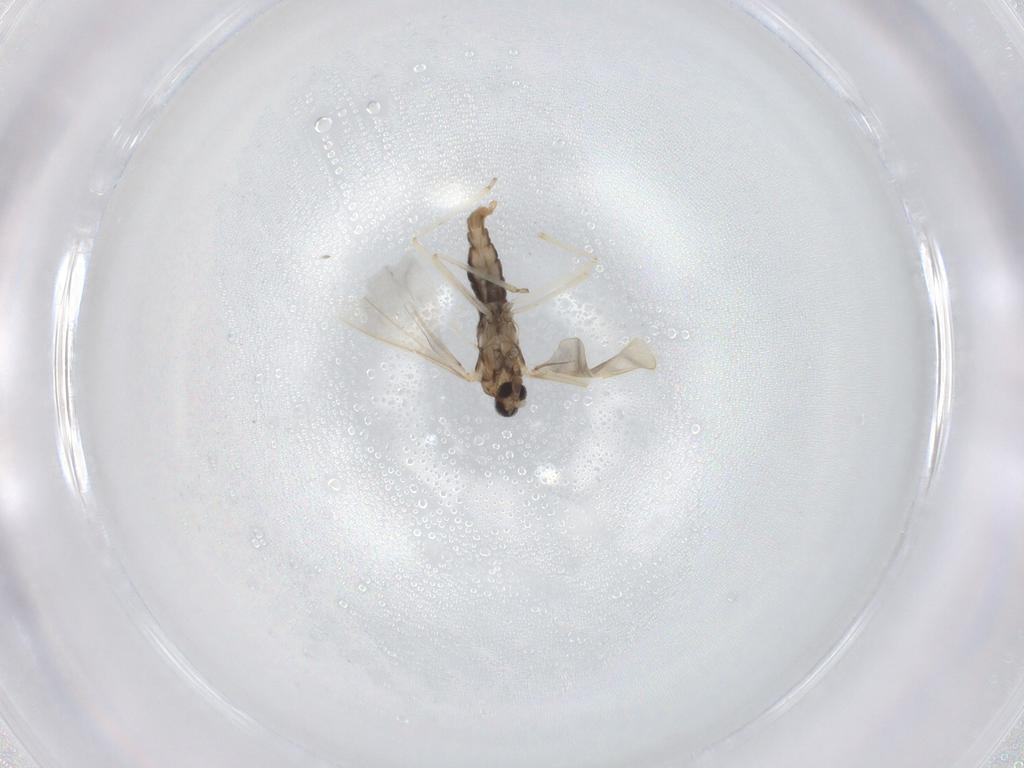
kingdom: Animalia
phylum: Arthropoda
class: Insecta
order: Diptera
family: Cecidomyiidae
